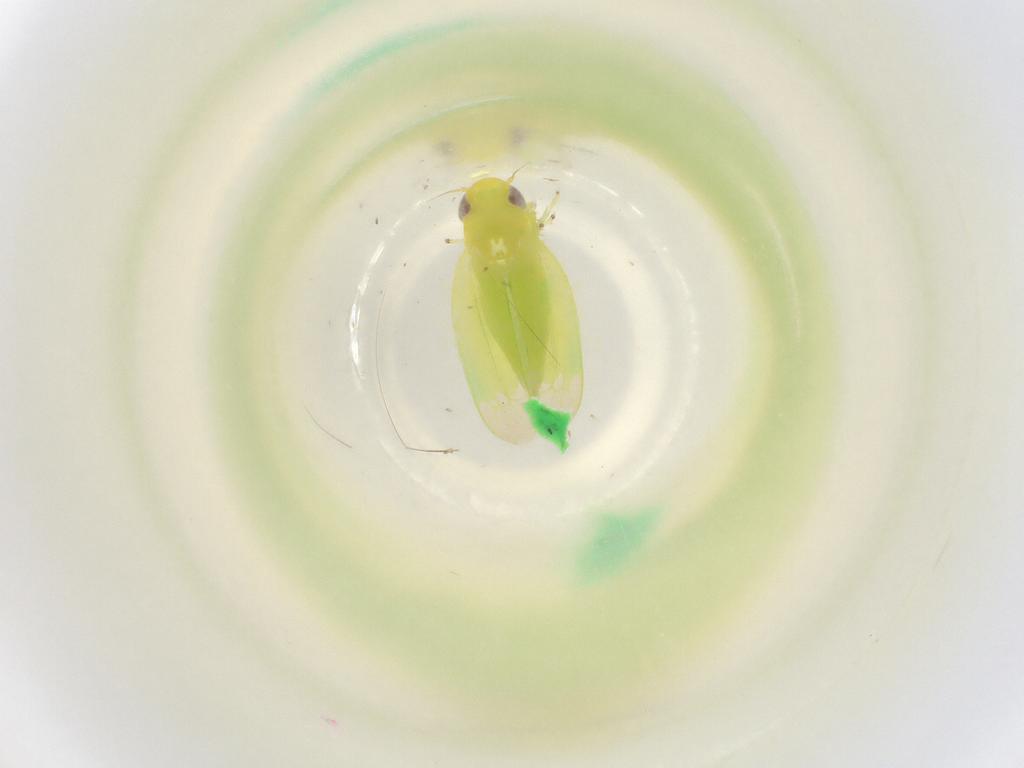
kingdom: Animalia
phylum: Arthropoda
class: Insecta
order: Hemiptera
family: Cicadellidae
